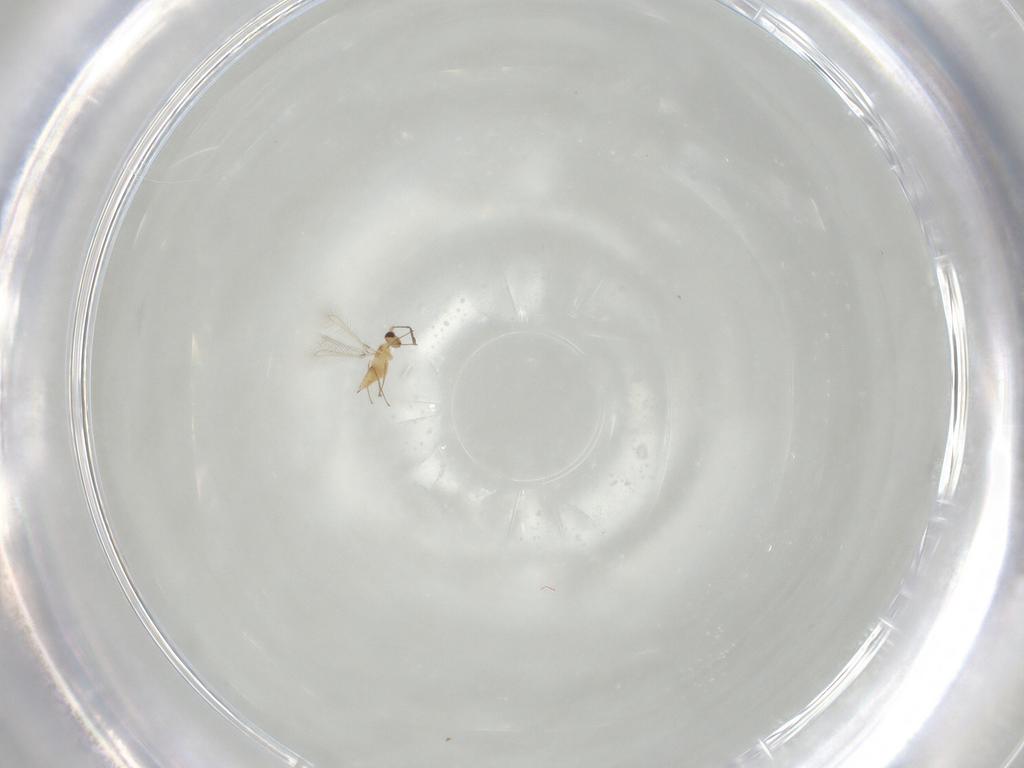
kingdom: Animalia
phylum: Arthropoda
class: Insecta
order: Hymenoptera
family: Mymaridae
